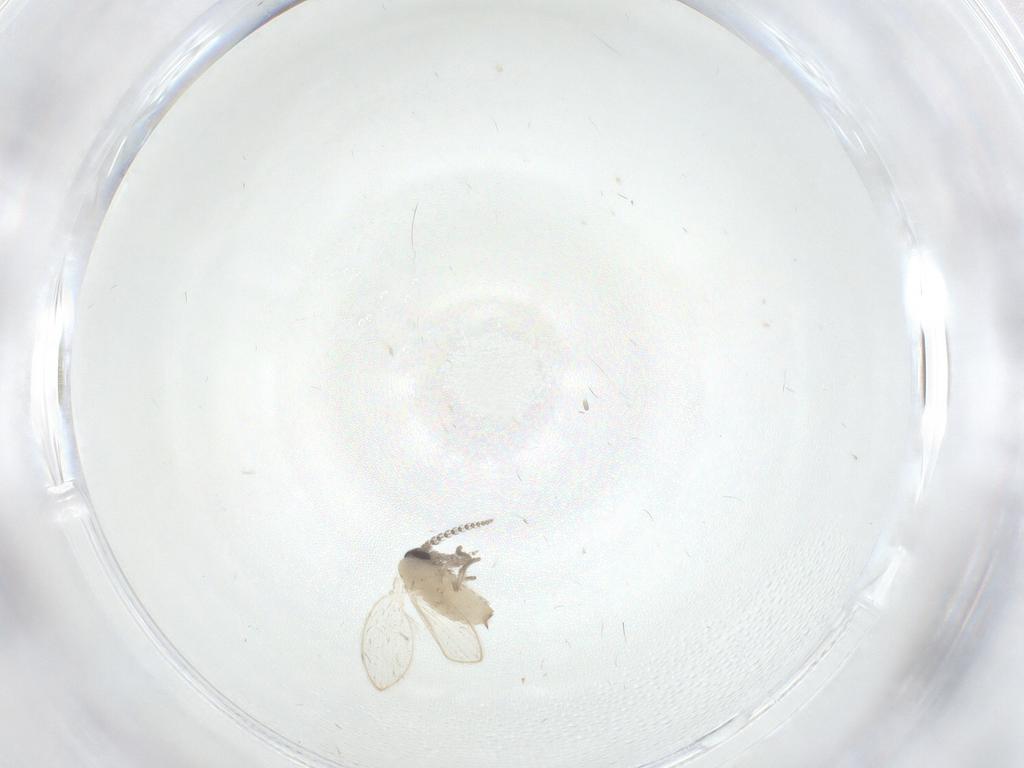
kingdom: Animalia
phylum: Arthropoda
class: Insecta
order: Diptera
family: Chironomidae
